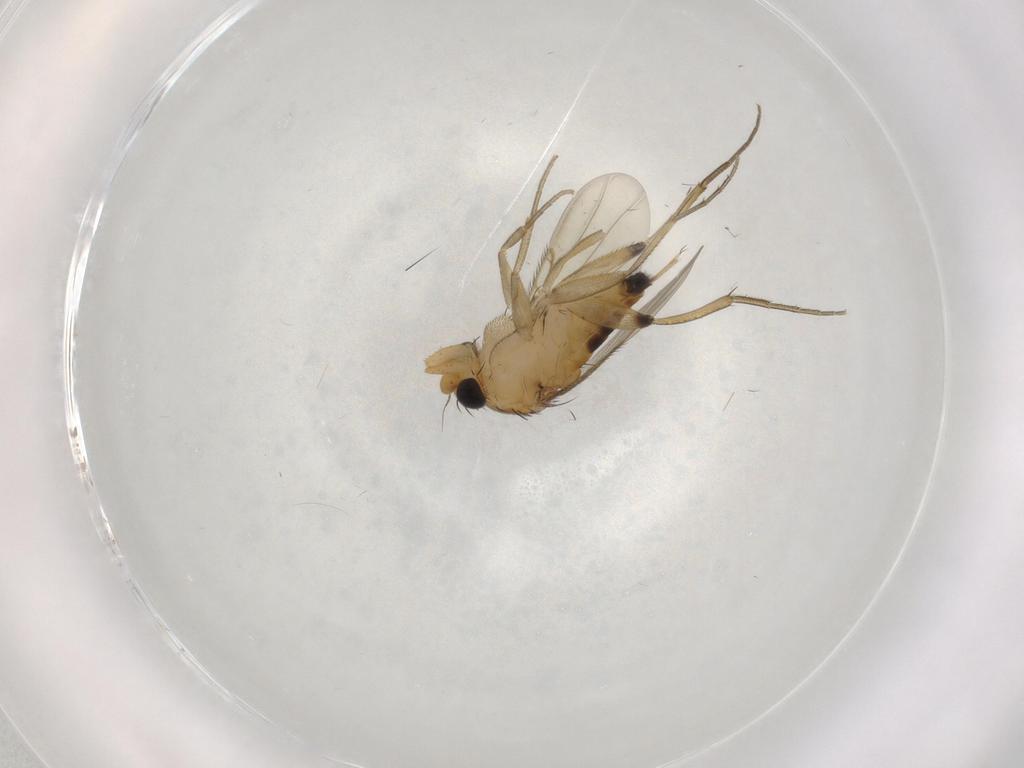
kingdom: Animalia
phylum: Arthropoda
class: Insecta
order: Diptera
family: Phoridae
